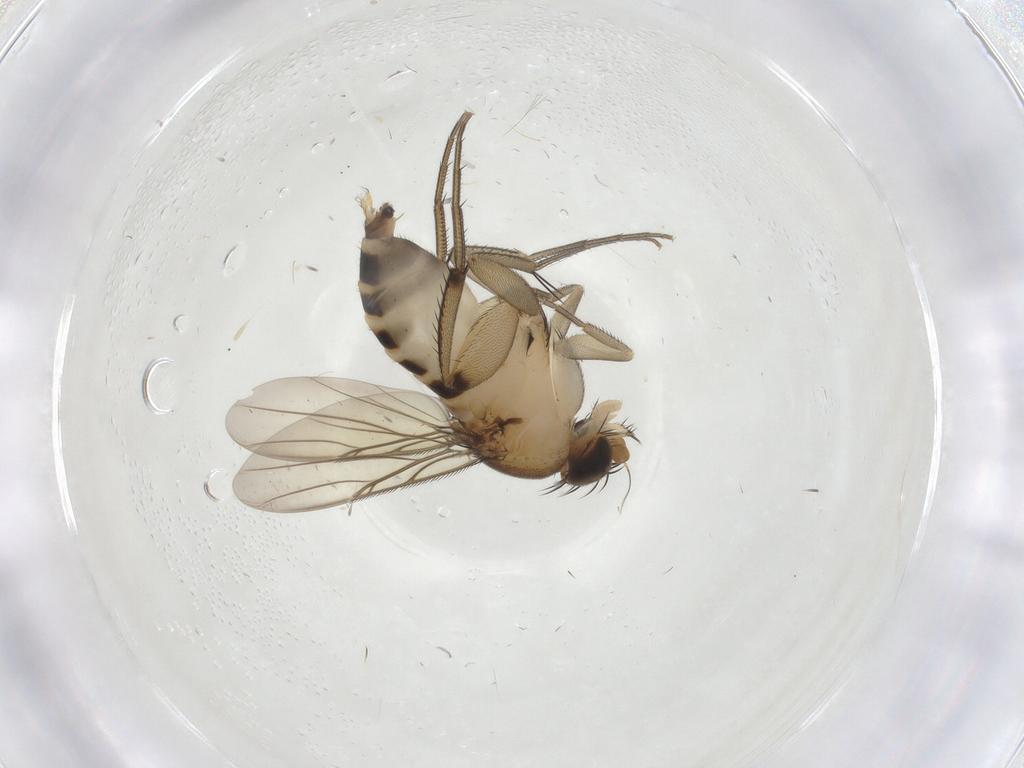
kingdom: Animalia
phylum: Arthropoda
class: Insecta
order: Diptera
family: Phoridae
